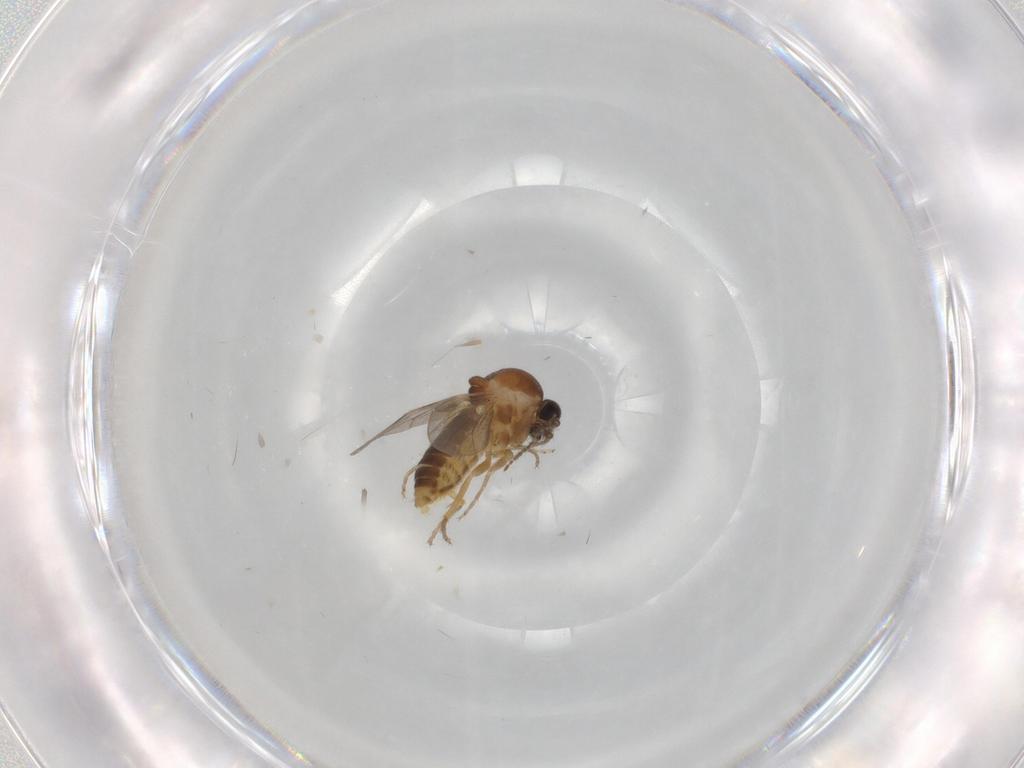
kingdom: Animalia
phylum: Arthropoda
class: Insecta
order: Diptera
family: Ceratopogonidae
